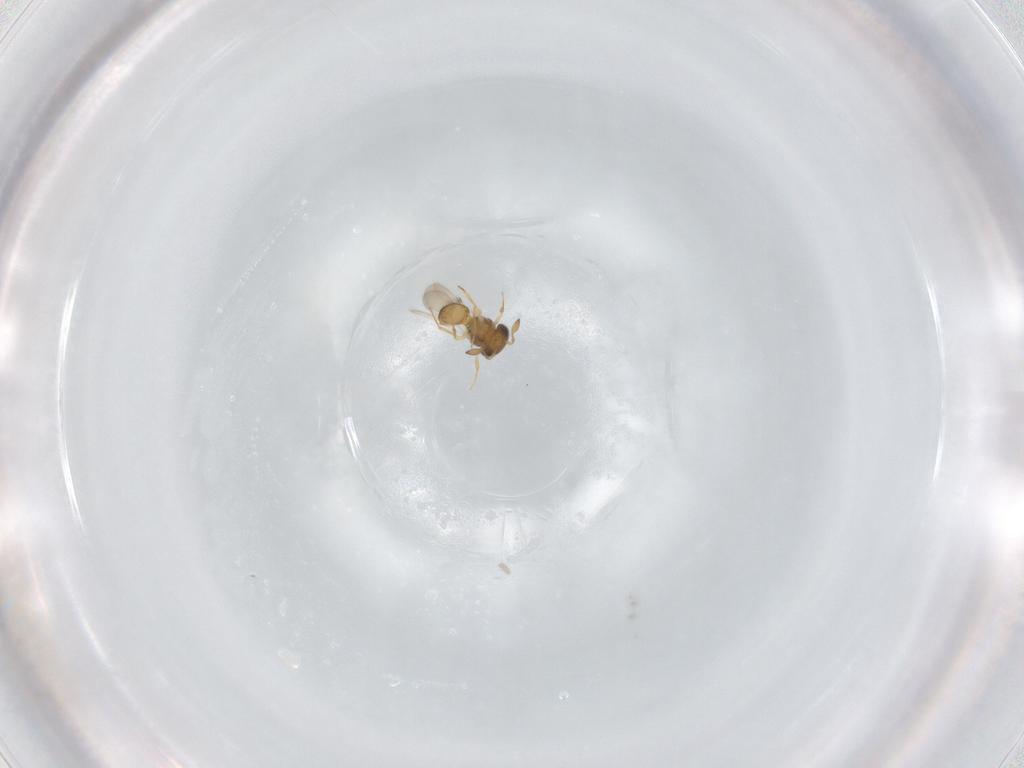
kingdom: Animalia
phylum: Arthropoda
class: Insecta
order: Hymenoptera
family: Scelionidae
